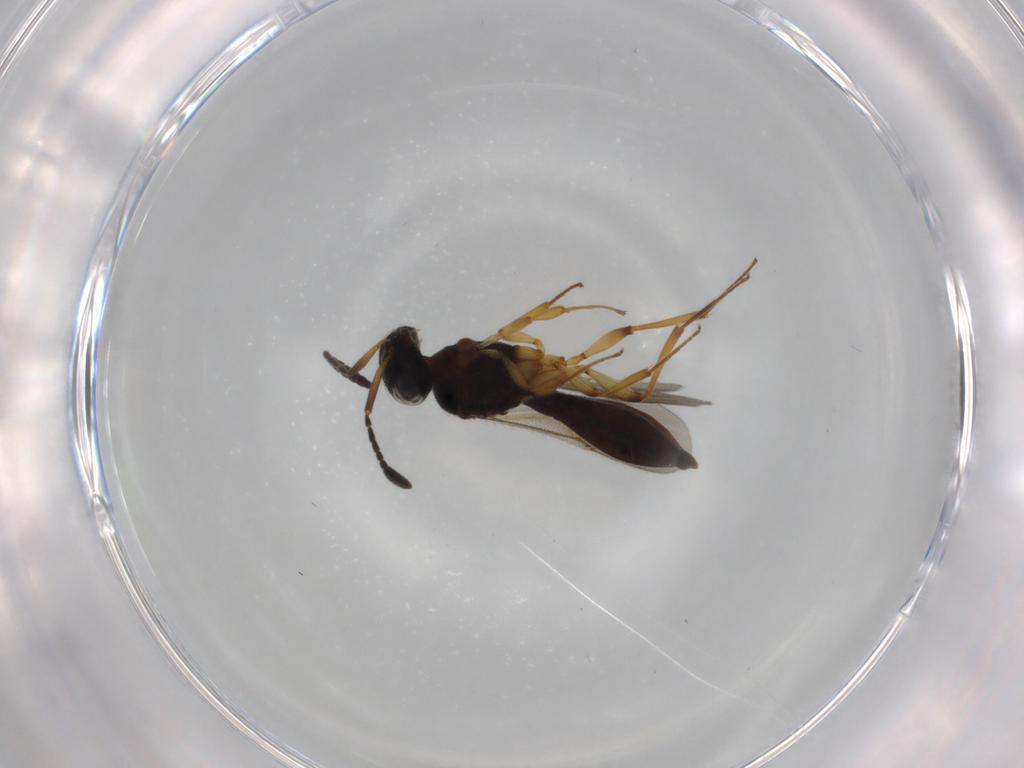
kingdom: Animalia
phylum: Arthropoda
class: Insecta
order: Hymenoptera
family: Scelionidae
